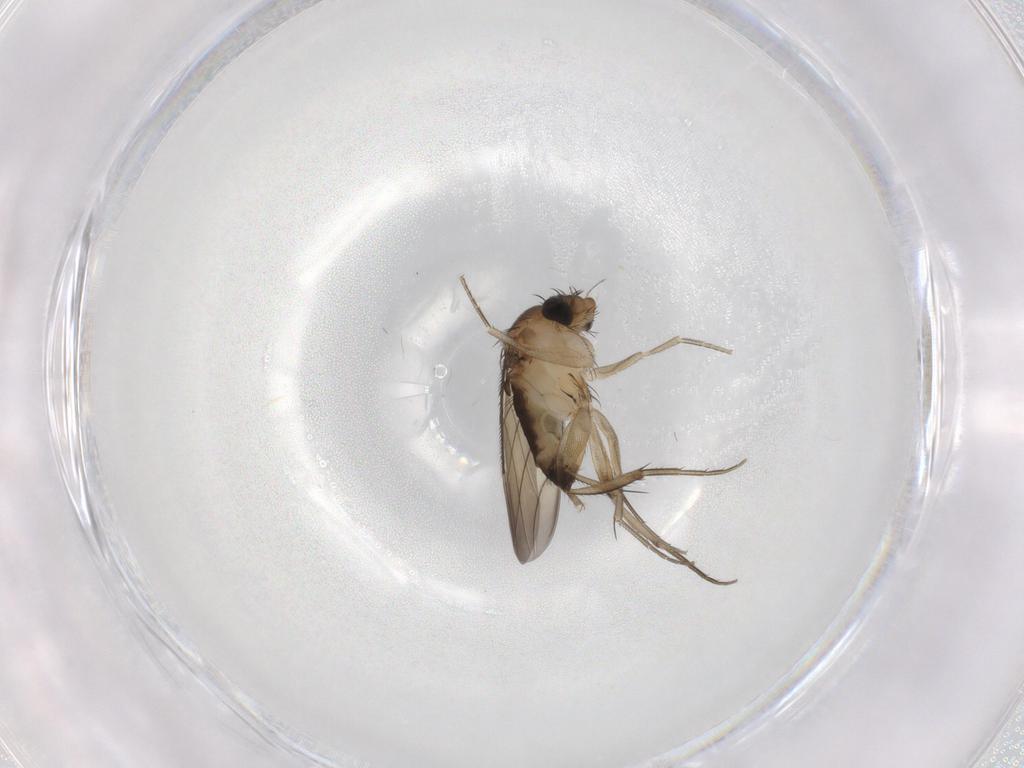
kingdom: Animalia
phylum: Arthropoda
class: Insecta
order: Diptera
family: Phoridae
